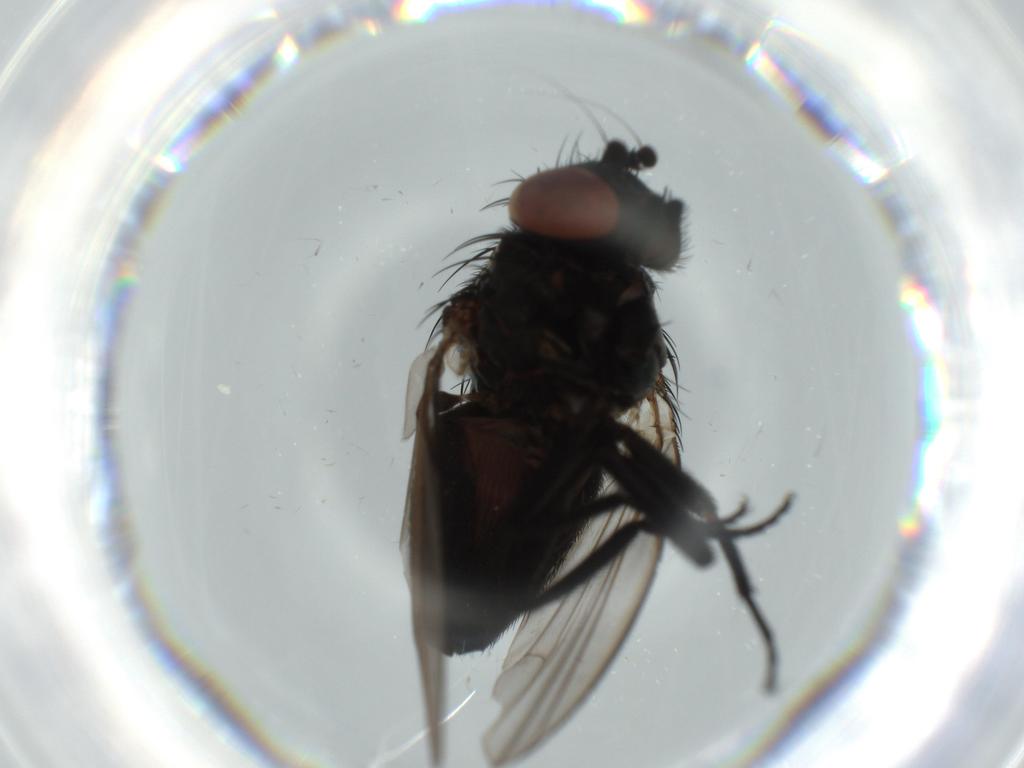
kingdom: Animalia
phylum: Arthropoda
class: Insecta
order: Diptera
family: Milichiidae
